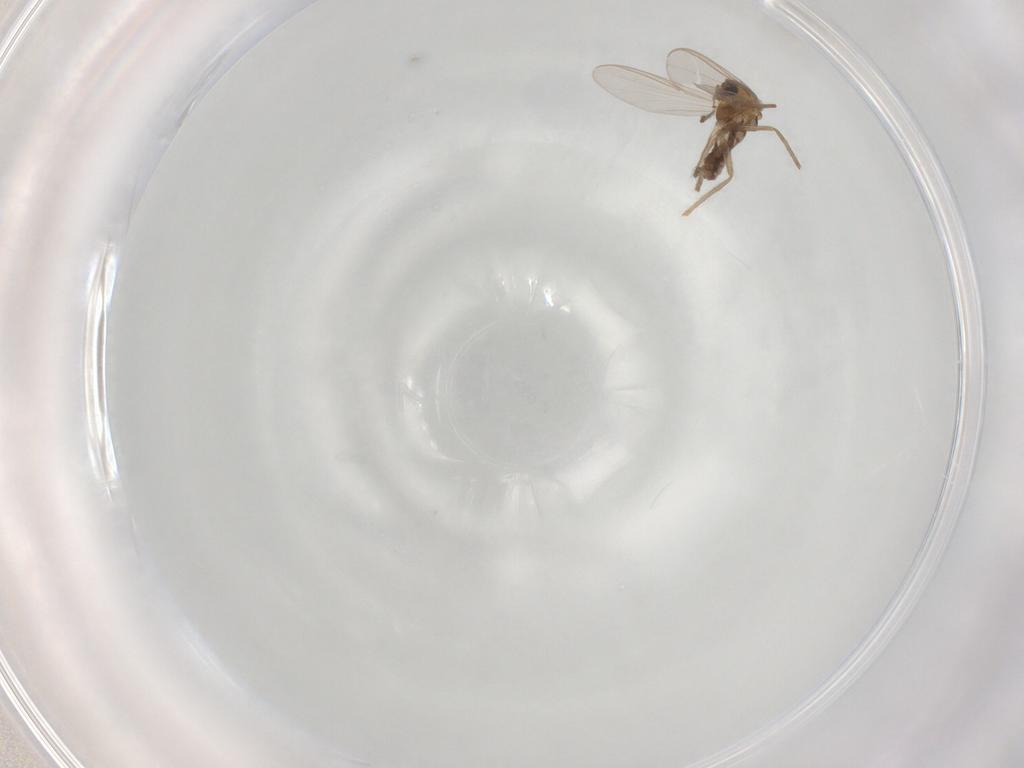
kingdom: Animalia
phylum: Arthropoda
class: Insecta
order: Diptera
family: Chironomidae
